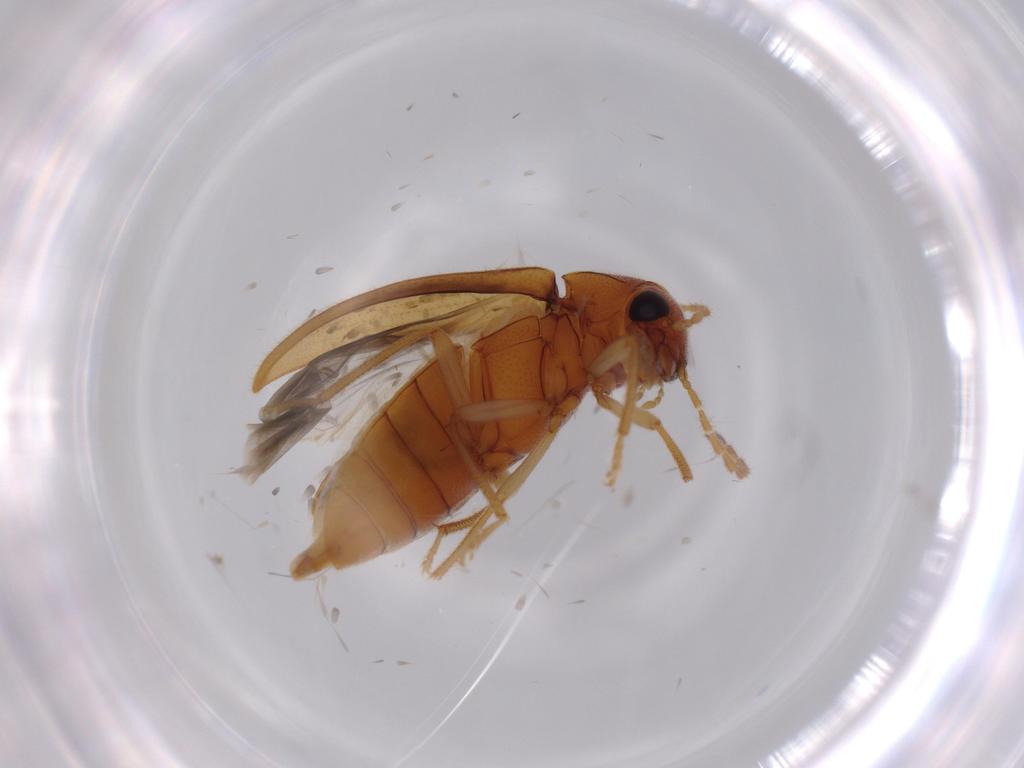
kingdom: Animalia
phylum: Arthropoda
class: Insecta
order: Coleoptera
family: Ptilodactylidae
